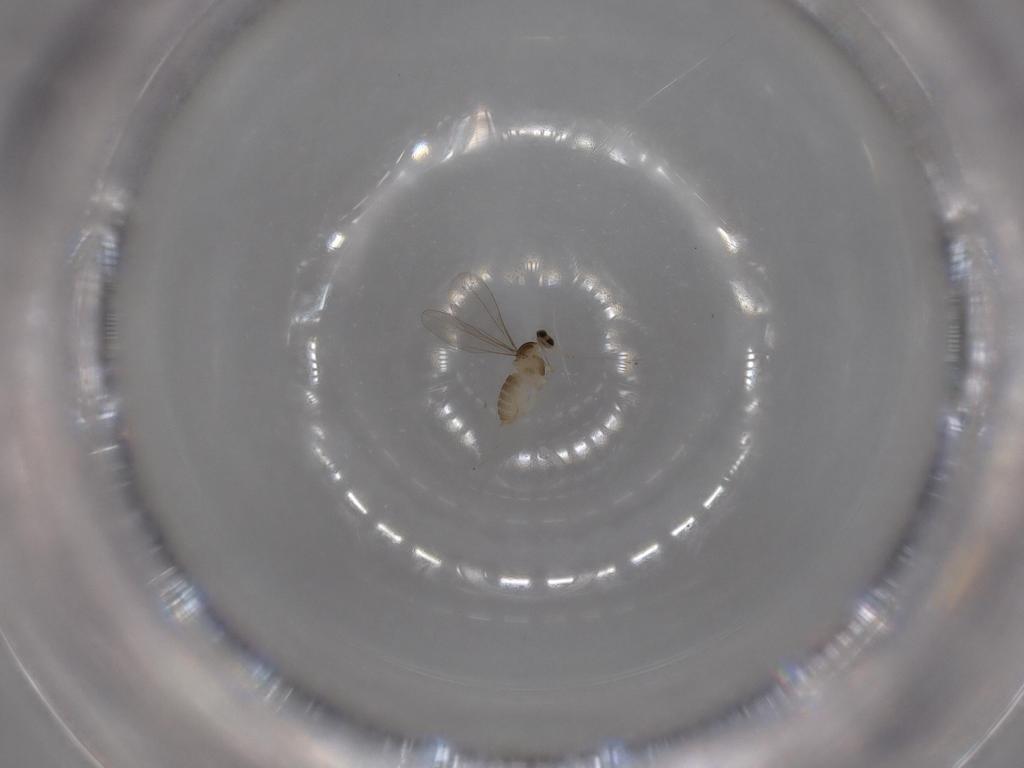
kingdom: Animalia
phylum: Arthropoda
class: Insecta
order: Diptera
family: Cecidomyiidae
